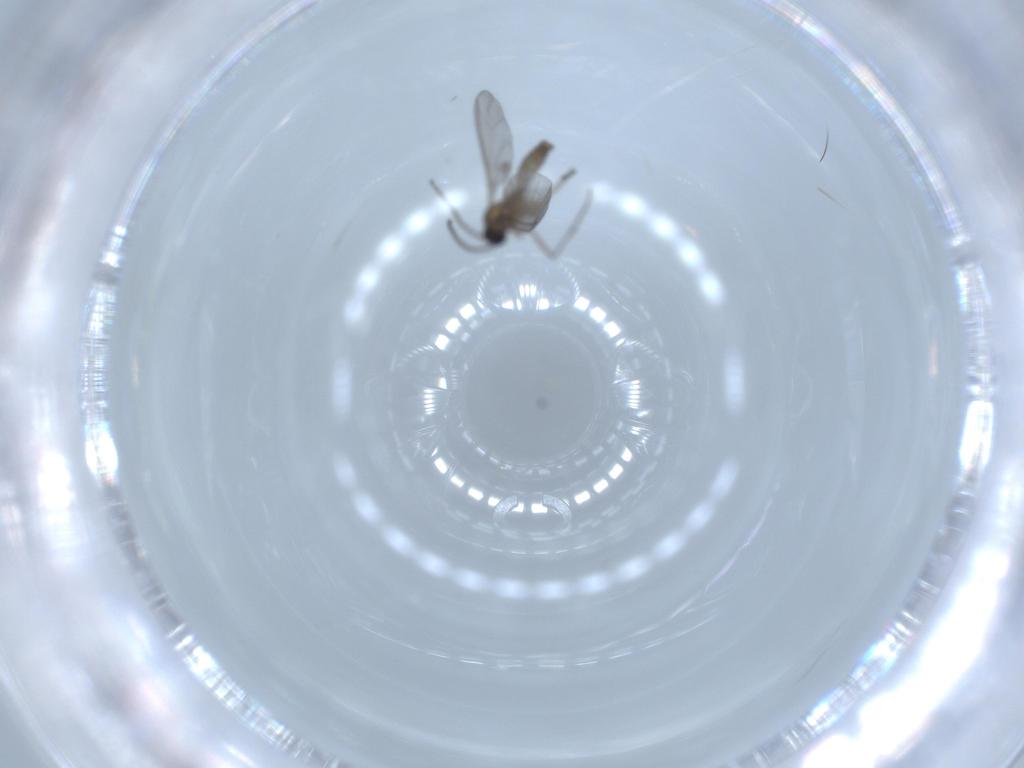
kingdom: Animalia
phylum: Arthropoda
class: Insecta
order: Diptera
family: Sciaridae
